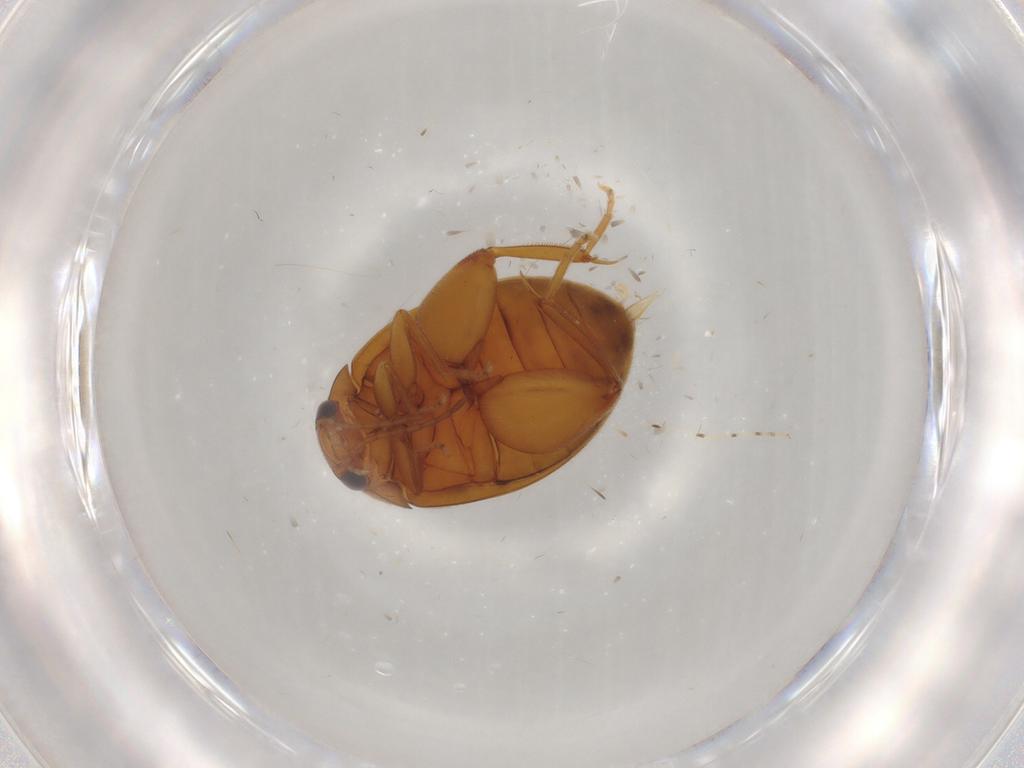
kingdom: Animalia
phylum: Arthropoda
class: Insecta
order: Coleoptera
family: Scirtidae
